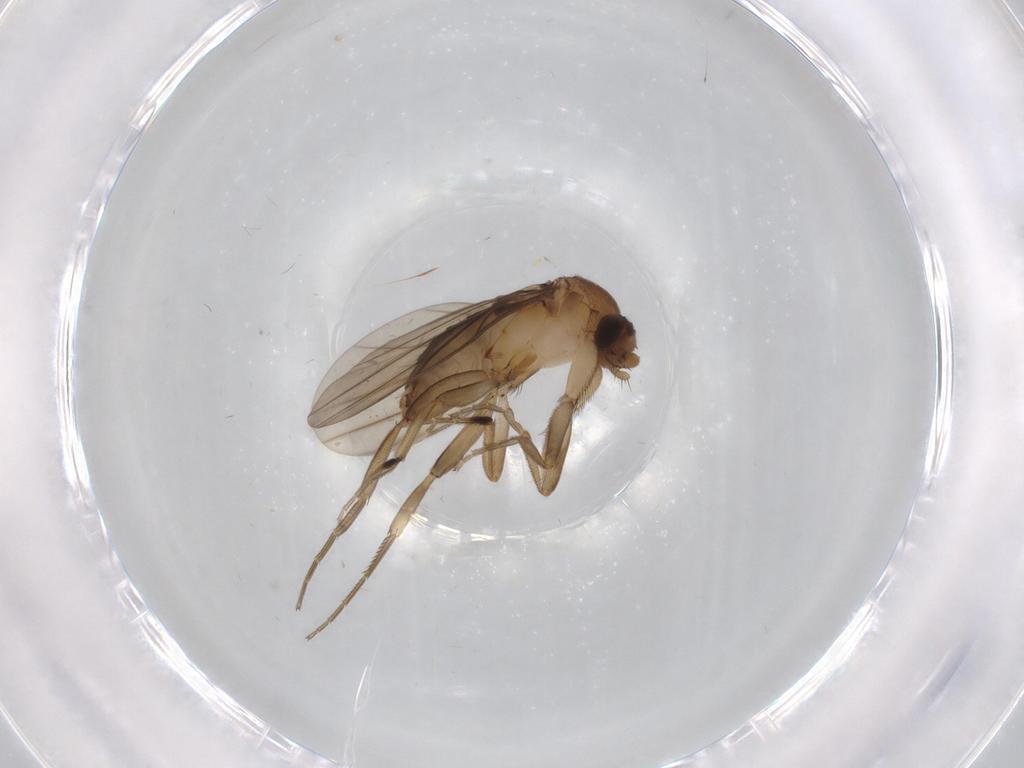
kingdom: Animalia
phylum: Arthropoda
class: Insecta
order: Diptera
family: Phoridae
